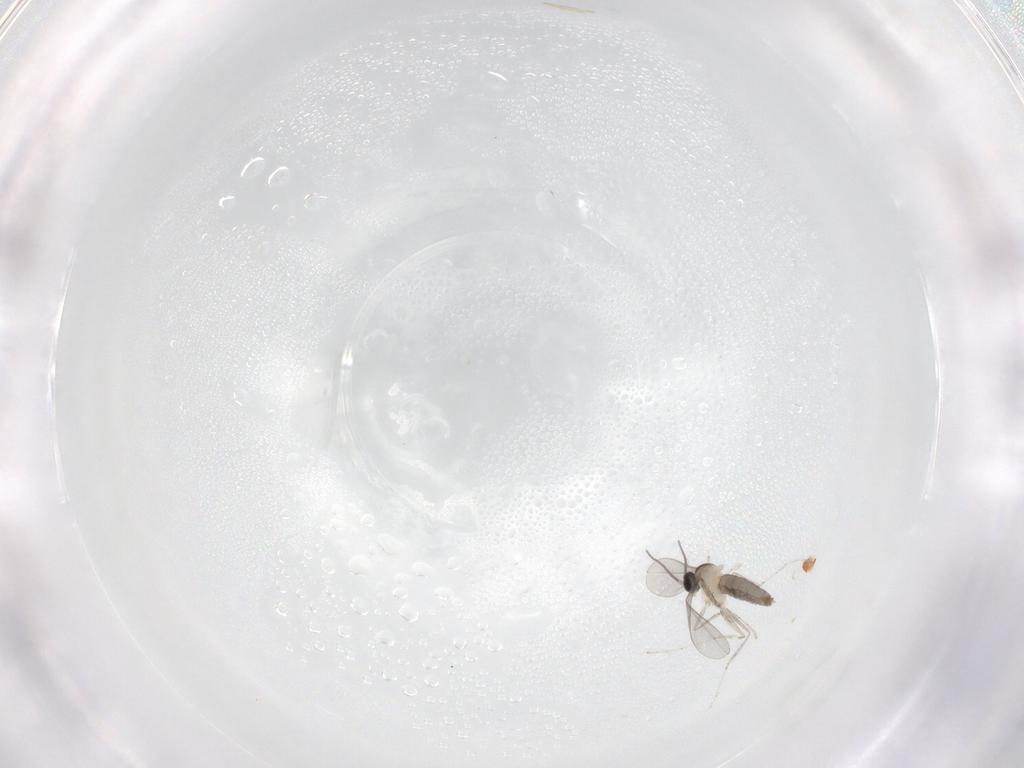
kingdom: Animalia
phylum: Arthropoda
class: Insecta
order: Diptera
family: Cecidomyiidae
